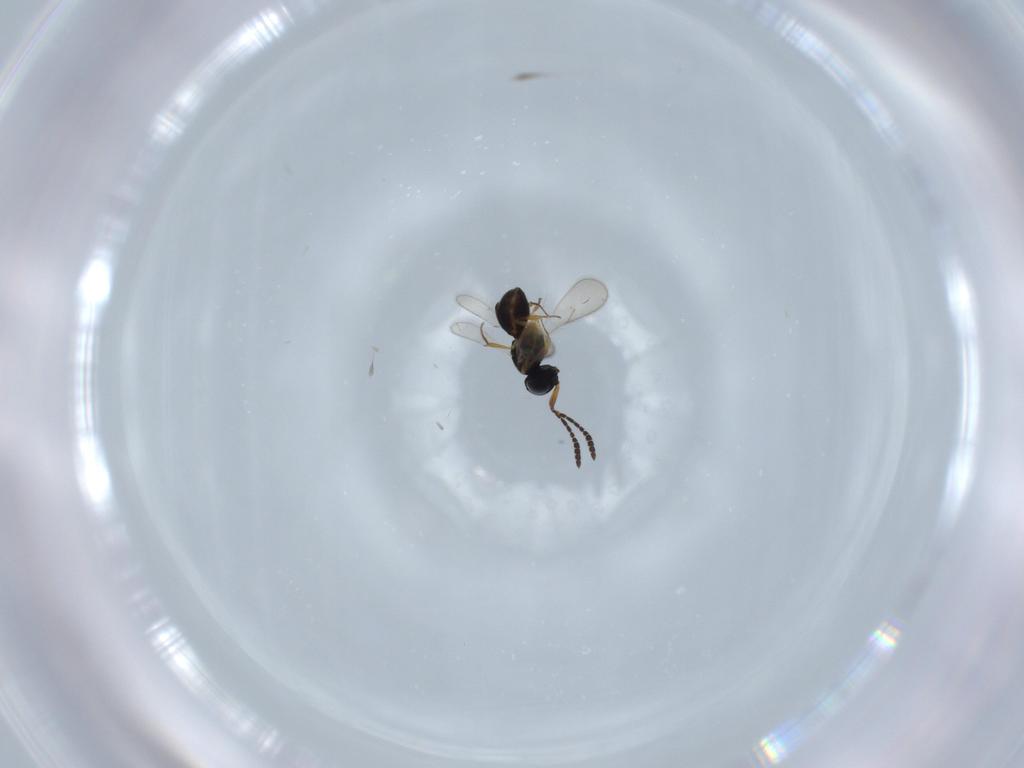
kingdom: Animalia
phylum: Arthropoda
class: Insecta
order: Hymenoptera
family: Scelionidae
